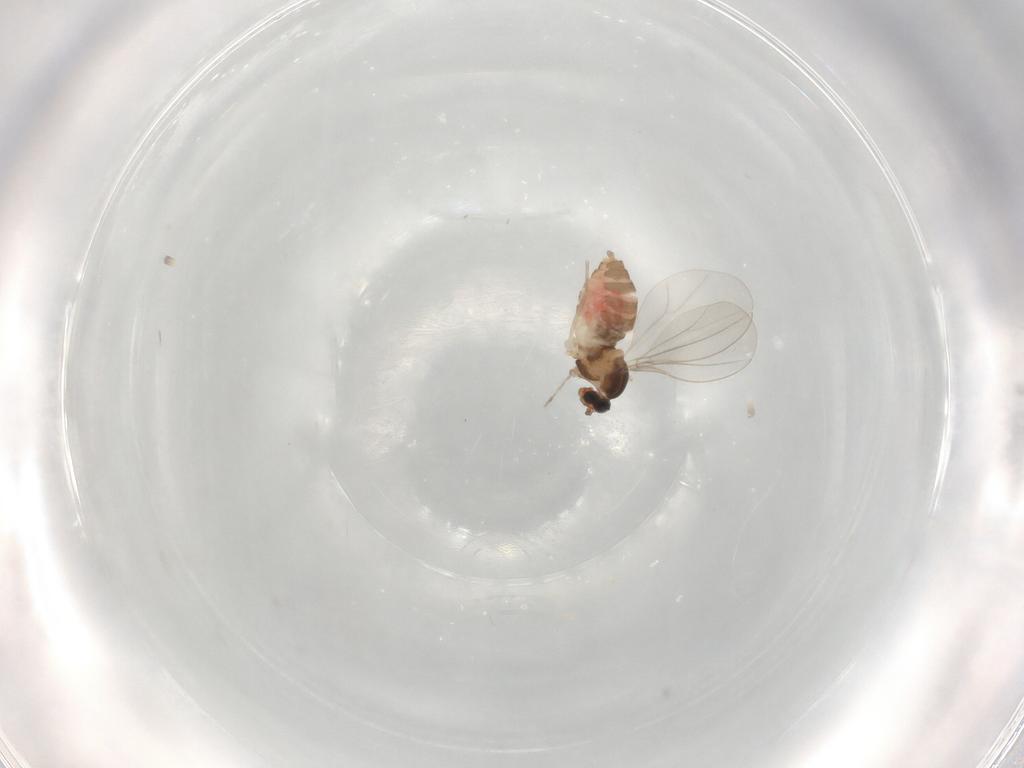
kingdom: Animalia
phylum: Arthropoda
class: Insecta
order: Diptera
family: Cecidomyiidae
